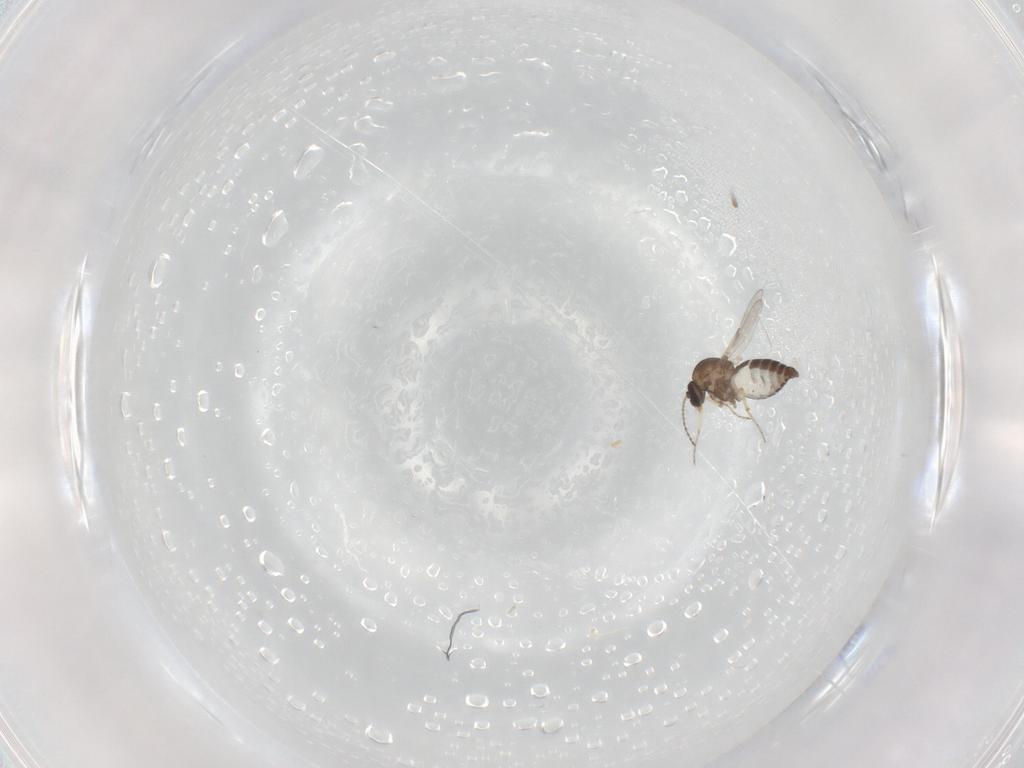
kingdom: Animalia
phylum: Arthropoda
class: Insecta
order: Diptera
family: Ceratopogonidae
